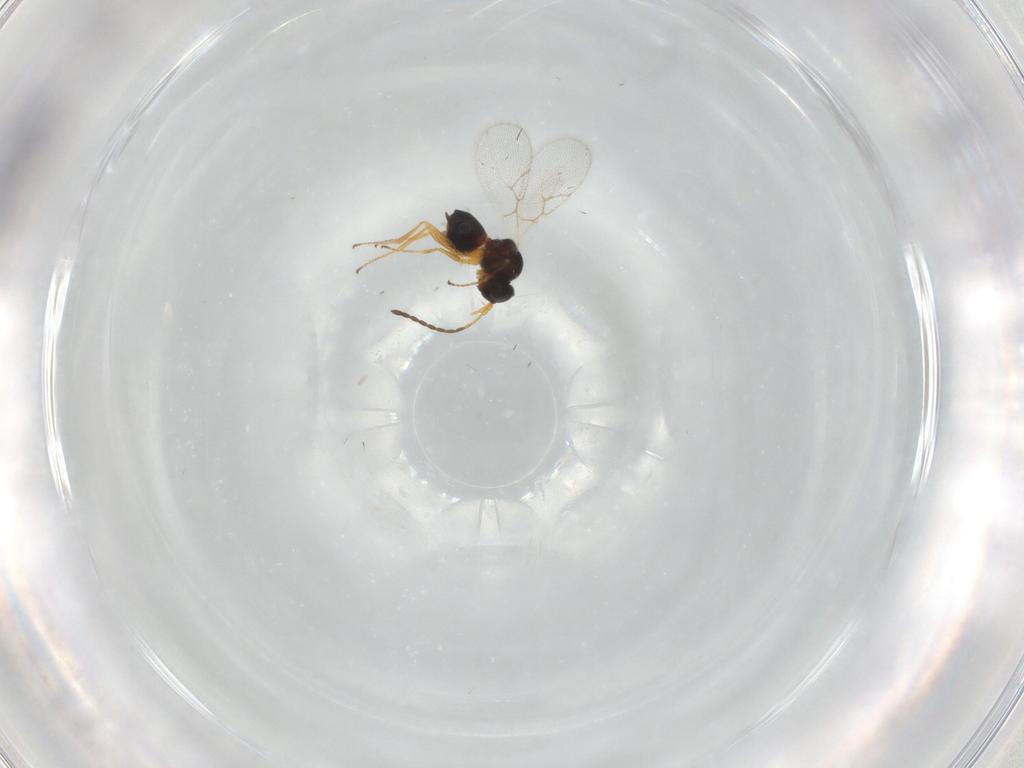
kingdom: Animalia
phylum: Arthropoda
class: Insecta
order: Hymenoptera
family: Figitidae
